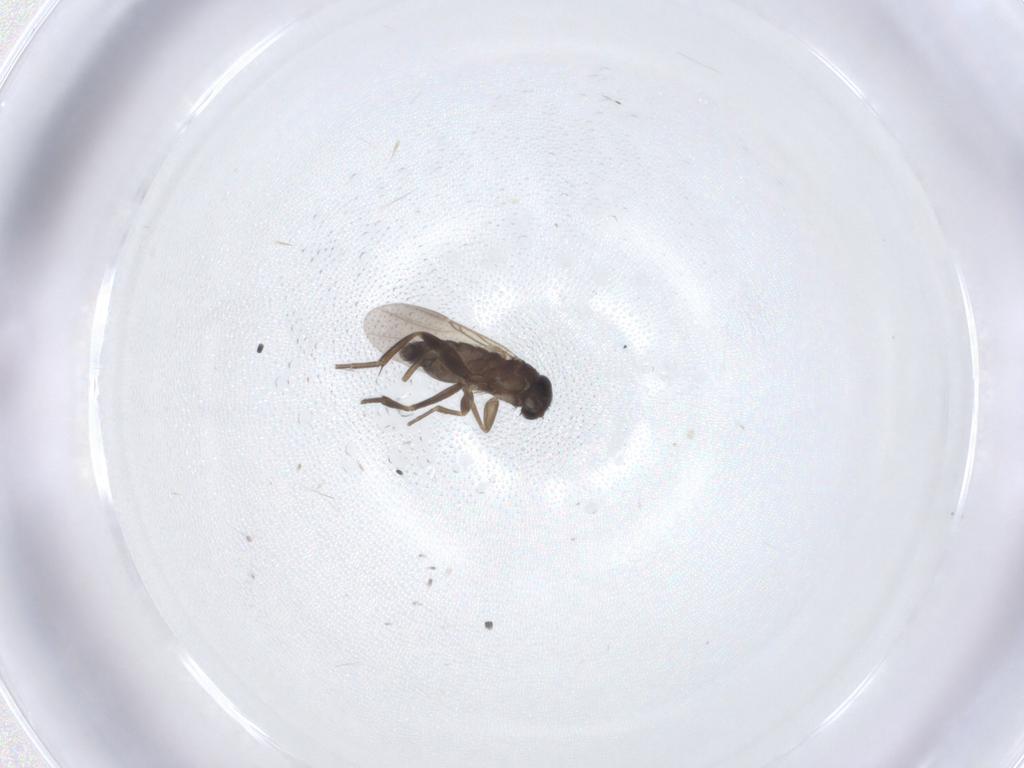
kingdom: Animalia
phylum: Arthropoda
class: Insecta
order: Diptera
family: Phoridae
